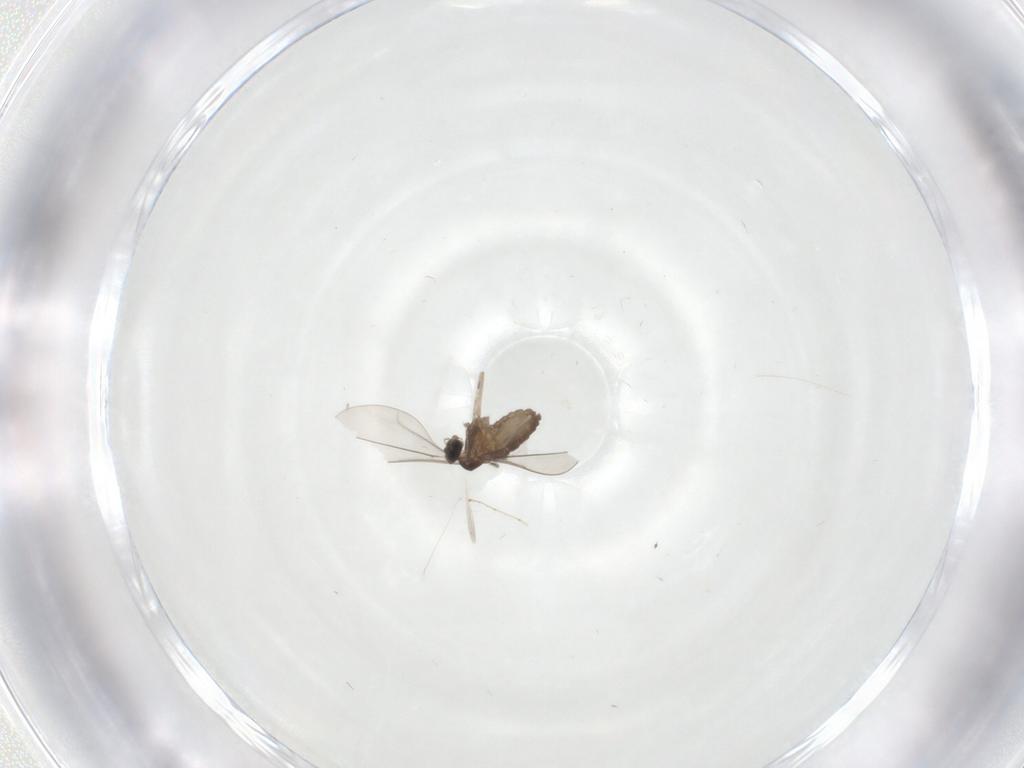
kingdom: Animalia
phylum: Arthropoda
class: Insecta
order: Diptera
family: Cecidomyiidae
